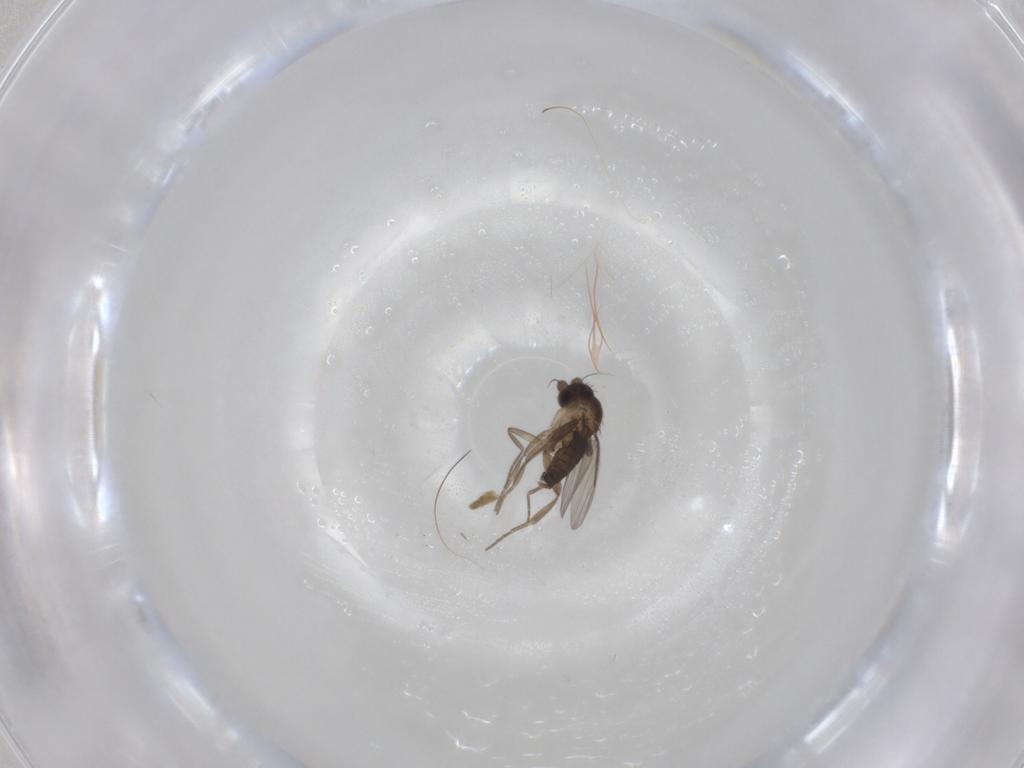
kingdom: Animalia
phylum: Arthropoda
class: Insecta
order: Diptera
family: Psychodidae
